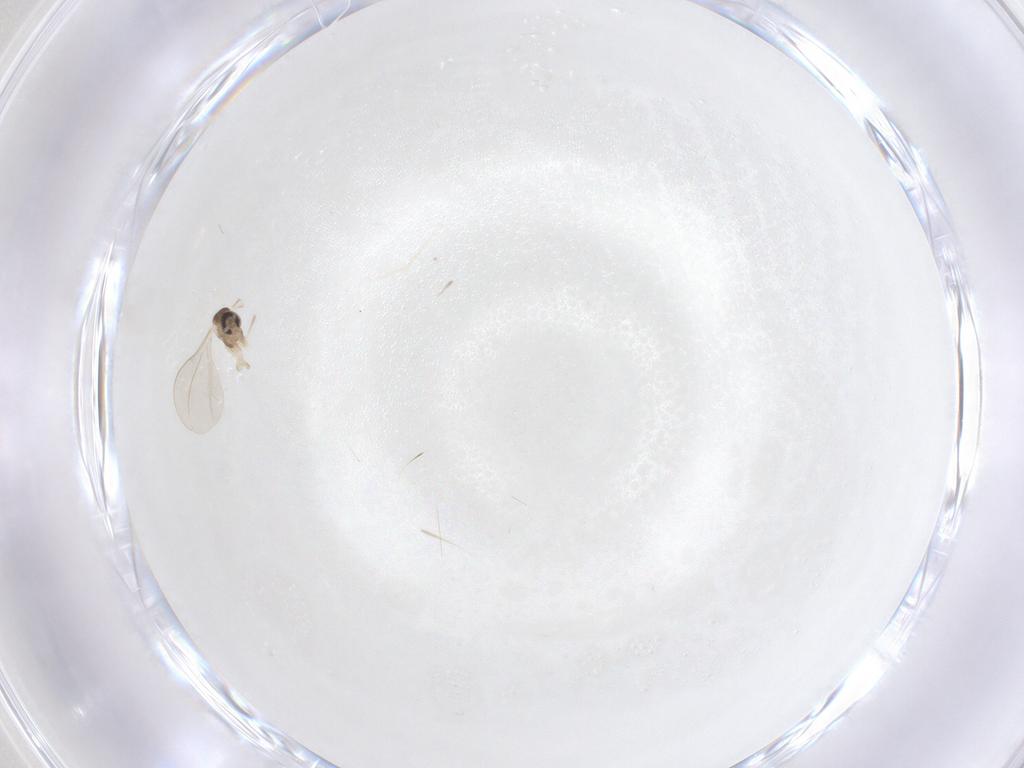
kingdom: Animalia
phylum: Arthropoda
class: Insecta
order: Diptera
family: Cecidomyiidae
